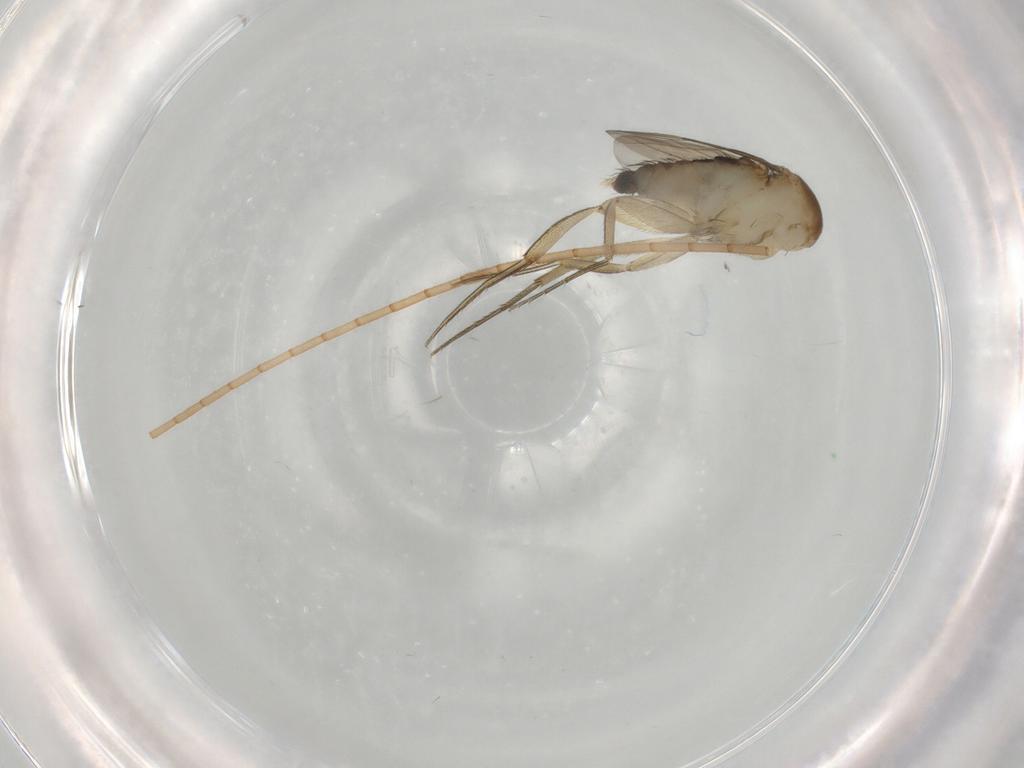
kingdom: Animalia
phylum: Arthropoda
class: Insecta
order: Diptera
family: Phoridae
